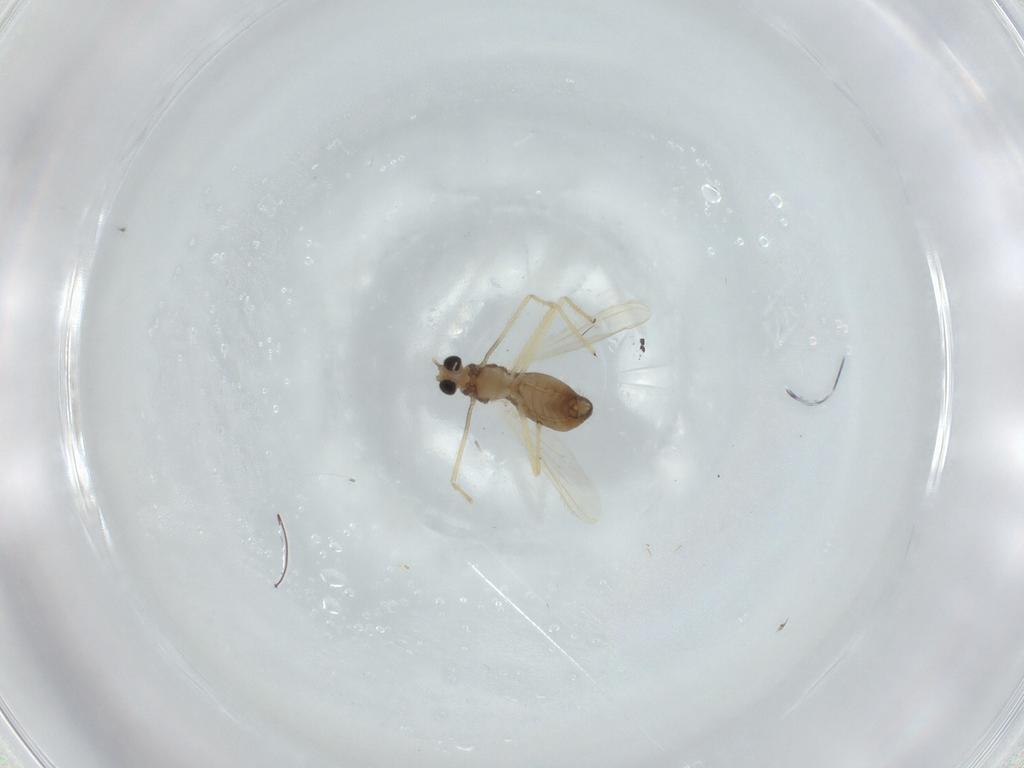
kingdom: Animalia
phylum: Arthropoda
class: Insecta
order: Diptera
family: Chironomidae
